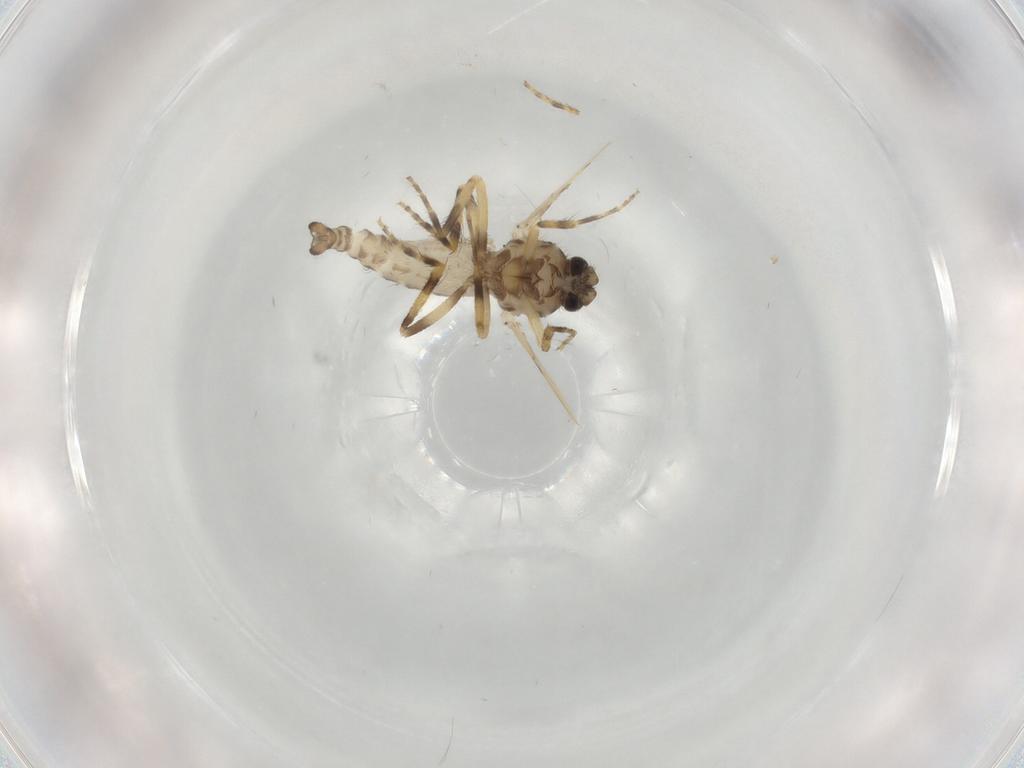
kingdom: Animalia
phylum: Arthropoda
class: Insecta
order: Diptera
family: Ceratopogonidae
